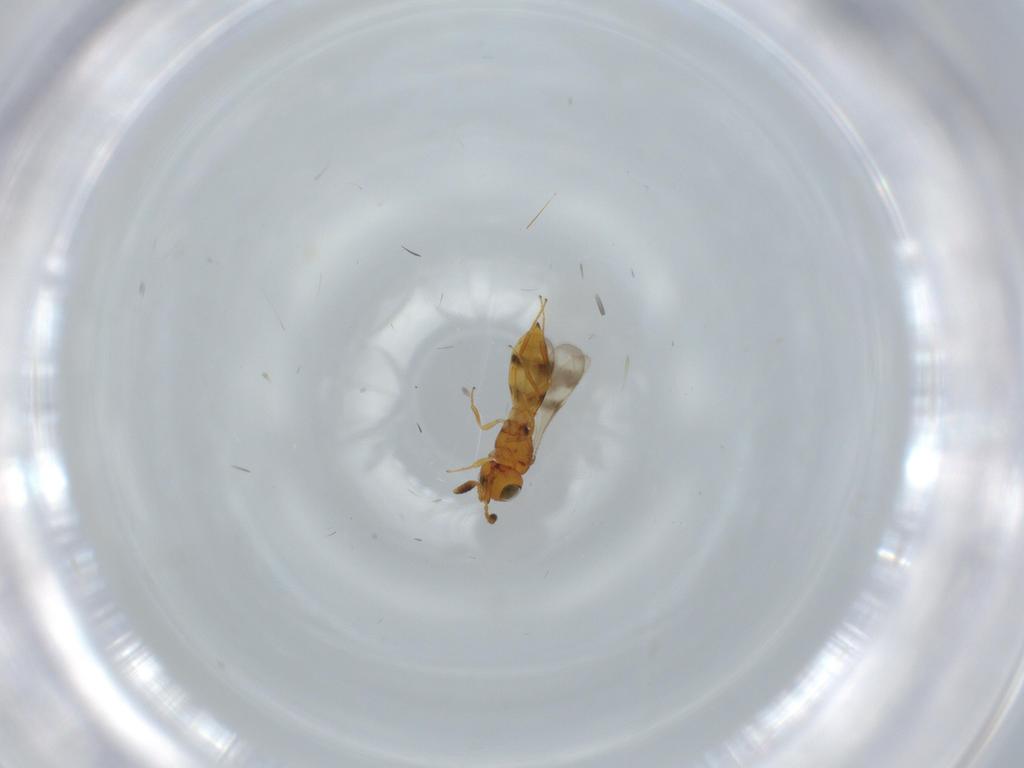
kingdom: Animalia
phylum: Arthropoda
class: Insecta
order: Hymenoptera
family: Scelionidae
